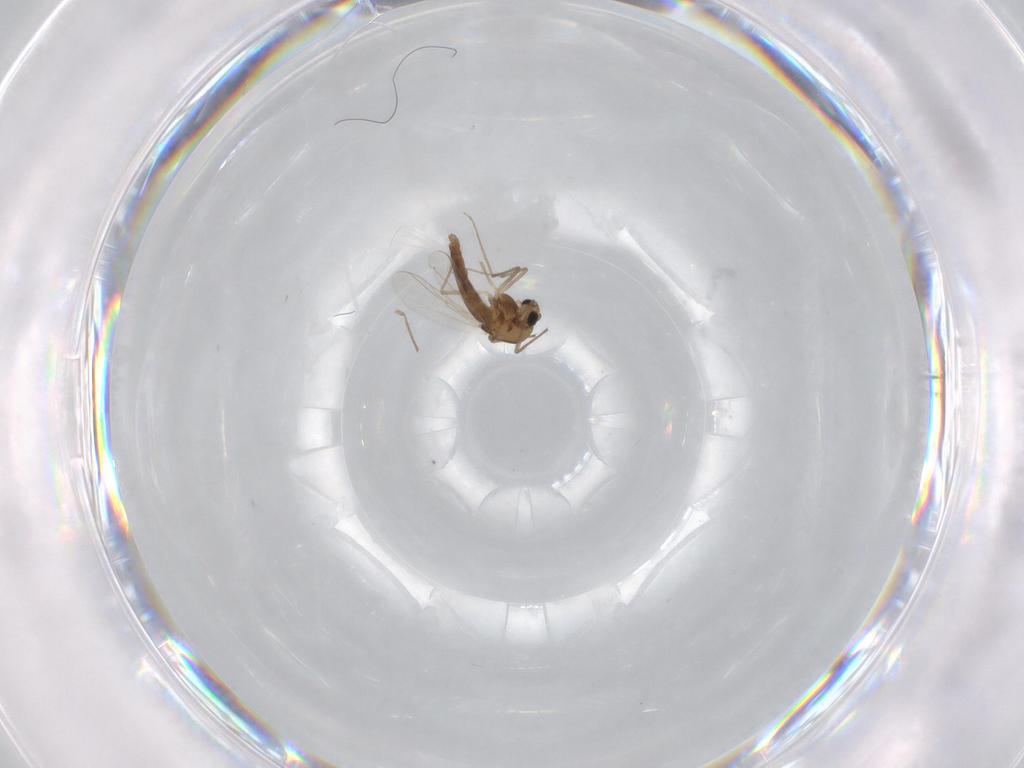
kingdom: Animalia
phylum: Arthropoda
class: Insecta
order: Diptera
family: Chironomidae
